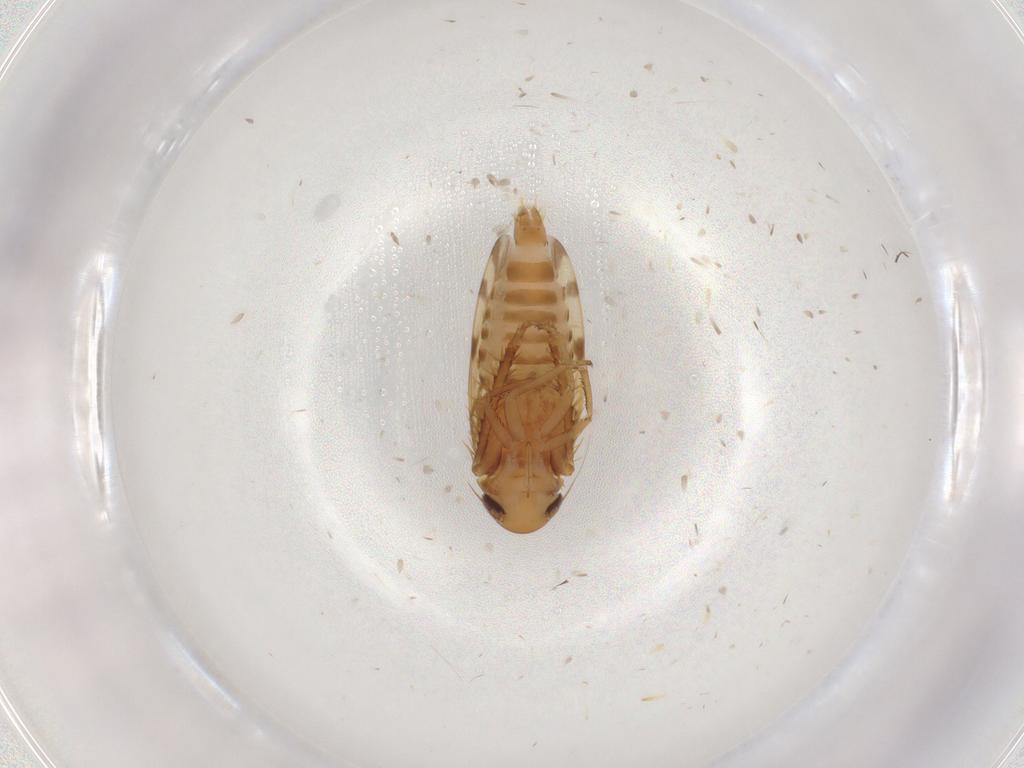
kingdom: Animalia
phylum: Arthropoda
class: Insecta
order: Hemiptera
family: Cicadellidae
